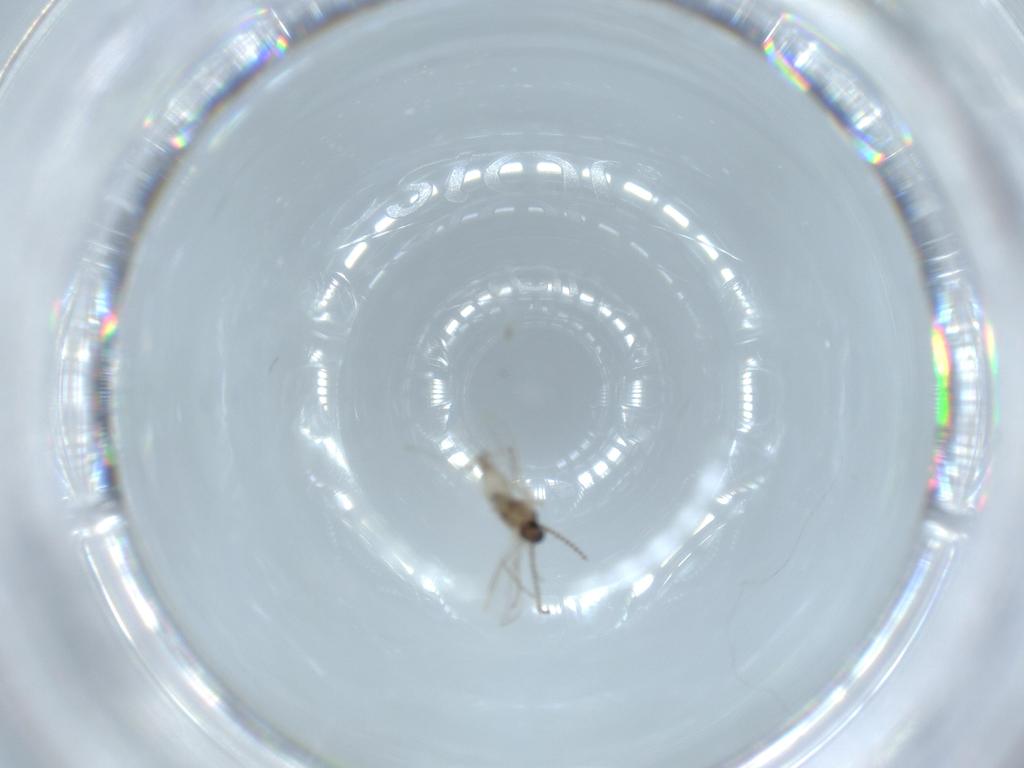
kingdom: Animalia
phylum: Arthropoda
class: Insecta
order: Diptera
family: Cecidomyiidae
